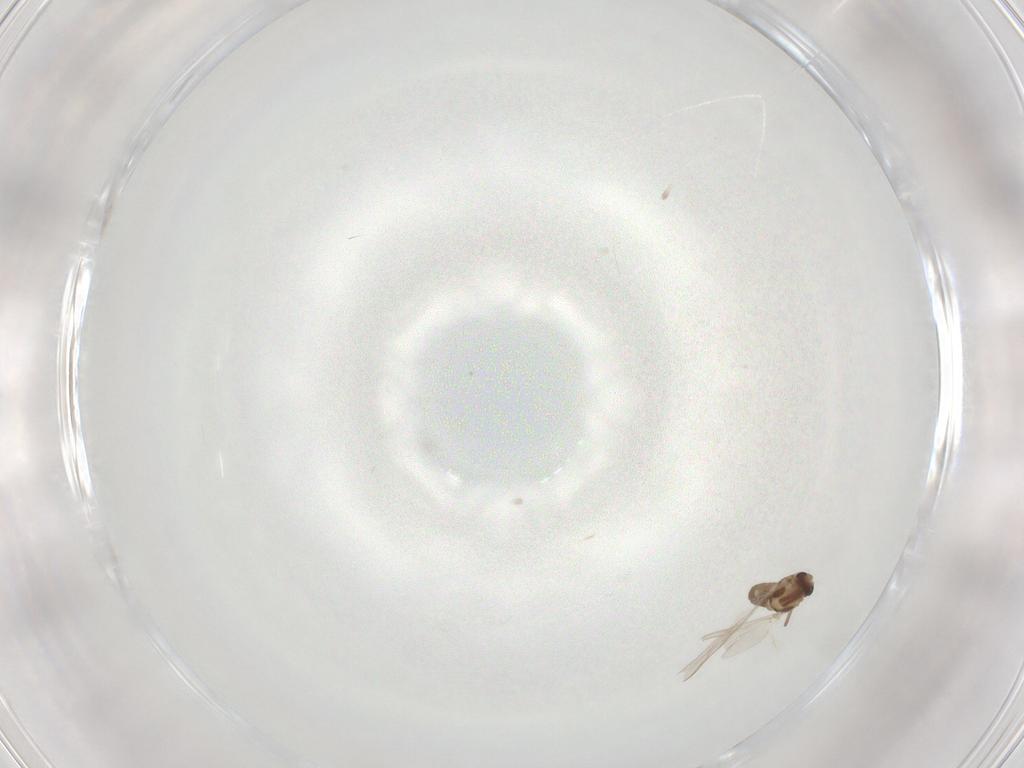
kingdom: Animalia
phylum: Arthropoda
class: Insecta
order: Diptera
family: Chironomidae
